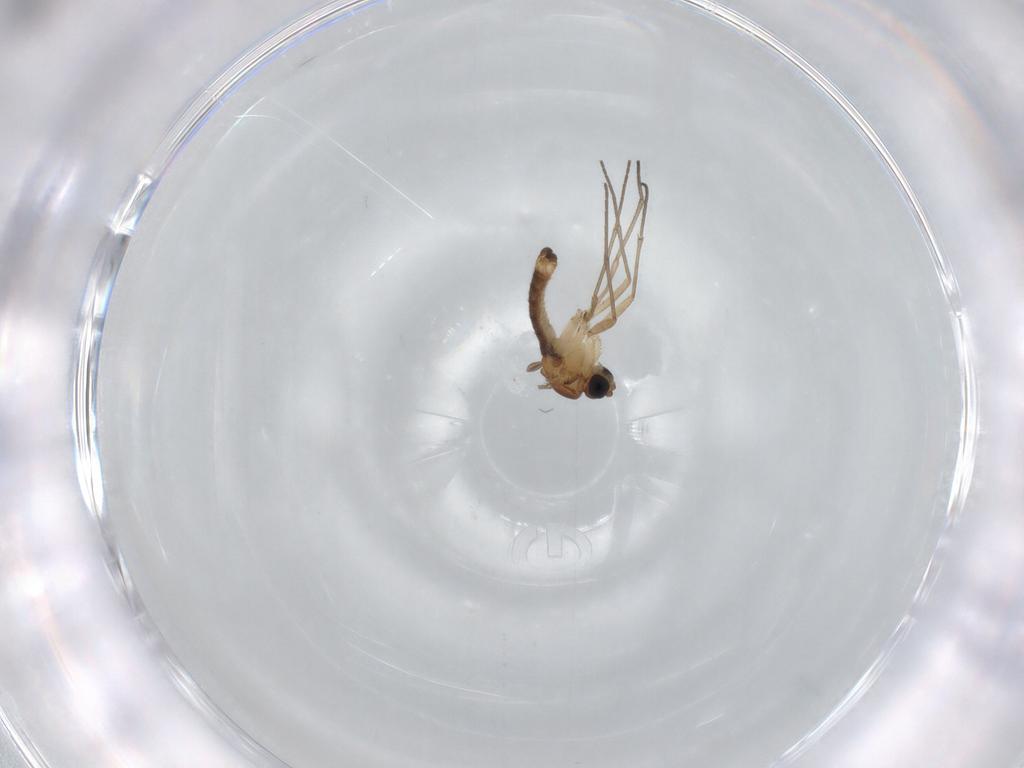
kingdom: Animalia
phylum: Arthropoda
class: Insecta
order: Diptera
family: Sciaridae
